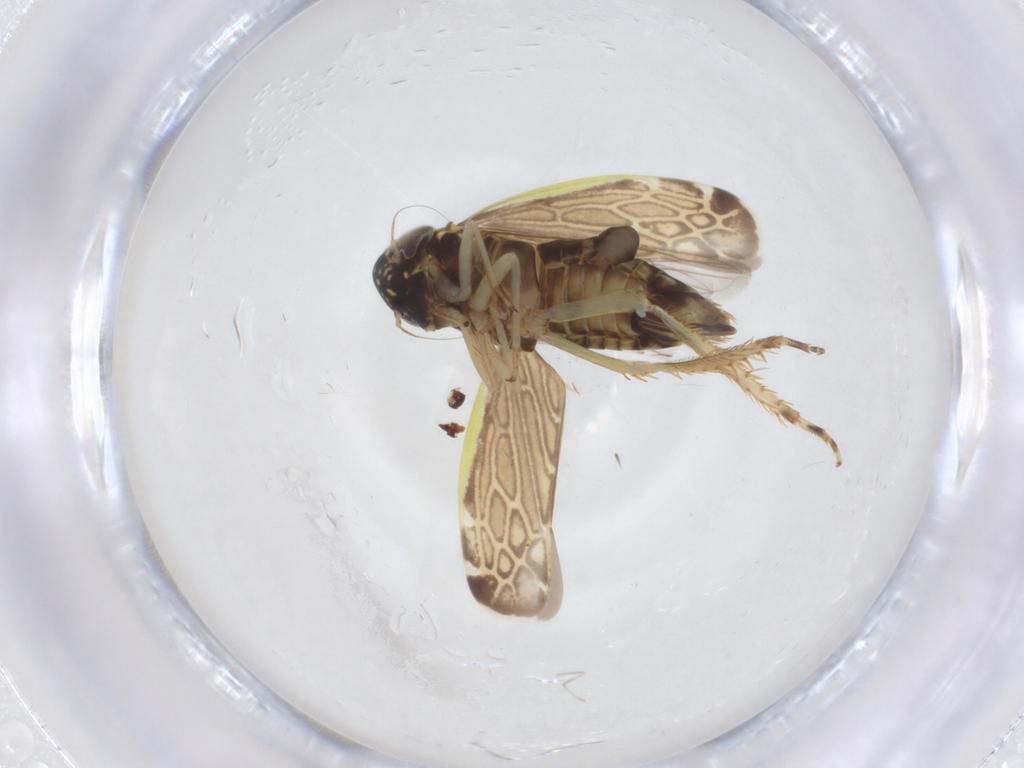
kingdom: Animalia
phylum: Arthropoda
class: Insecta
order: Hemiptera
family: Cicadellidae
